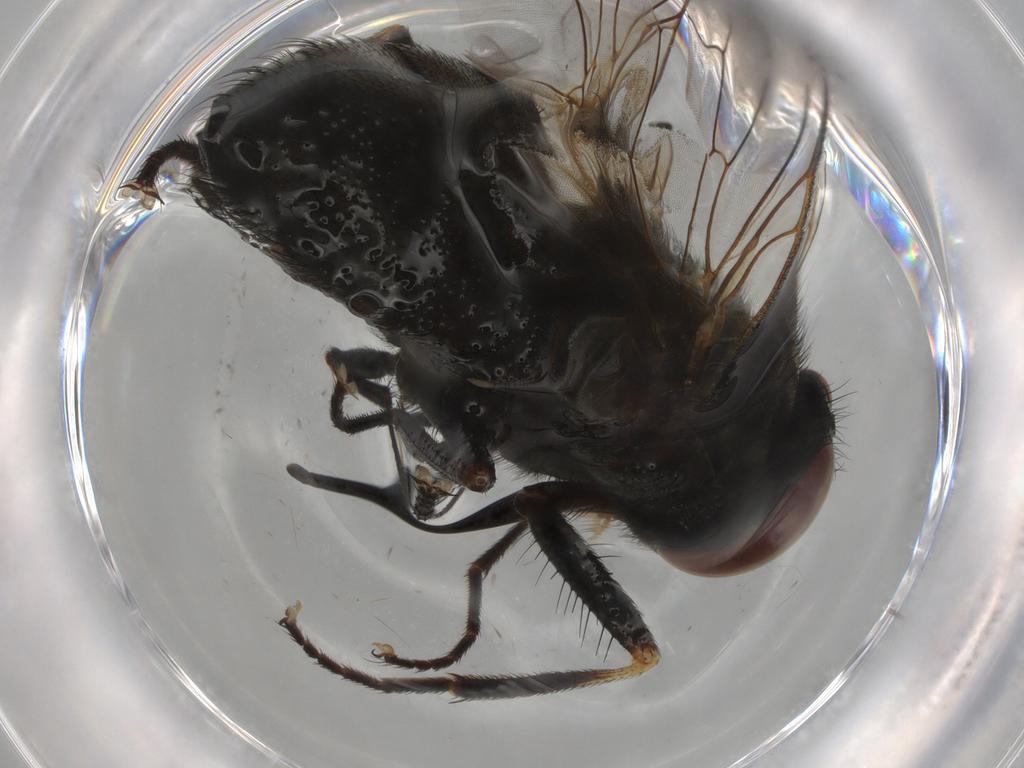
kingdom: Animalia
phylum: Arthropoda
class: Insecta
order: Diptera
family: Muscidae
